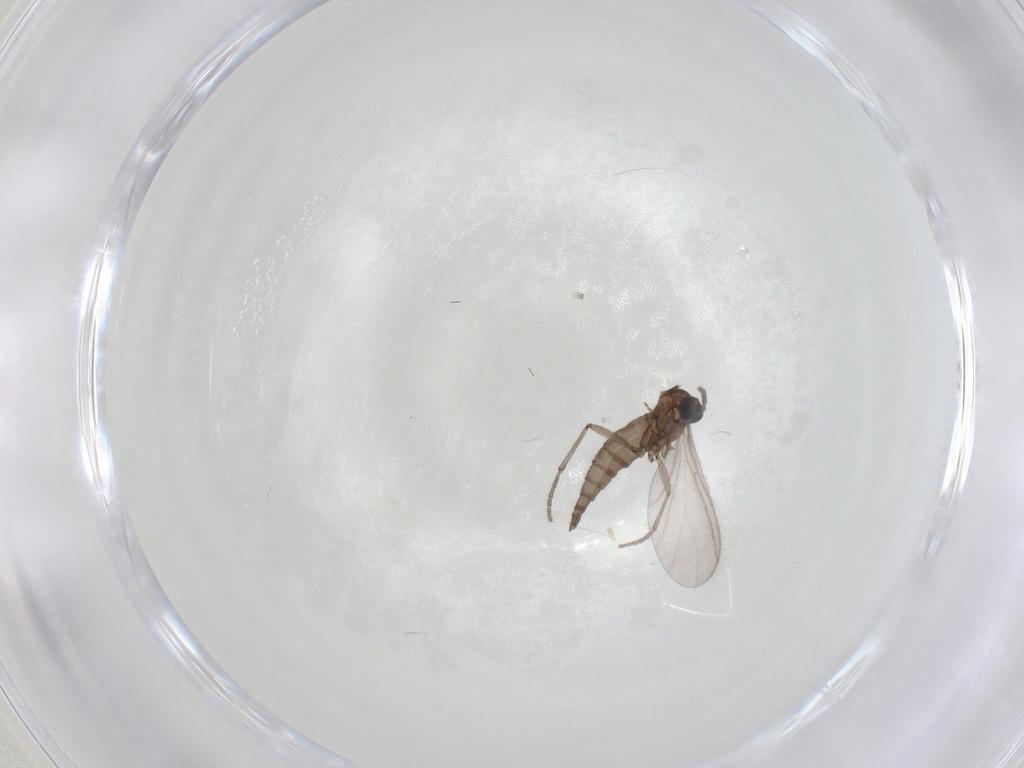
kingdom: Animalia
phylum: Arthropoda
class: Insecta
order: Diptera
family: Sciaridae
